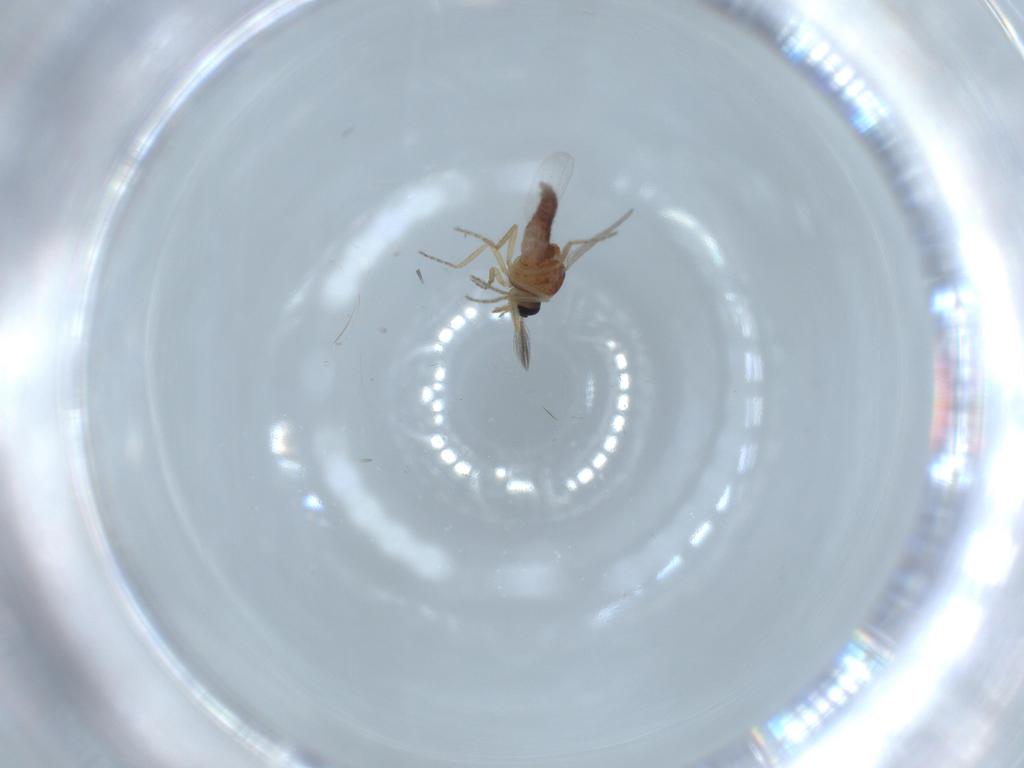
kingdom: Animalia
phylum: Arthropoda
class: Insecta
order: Diptera
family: Ceratopogonidae
